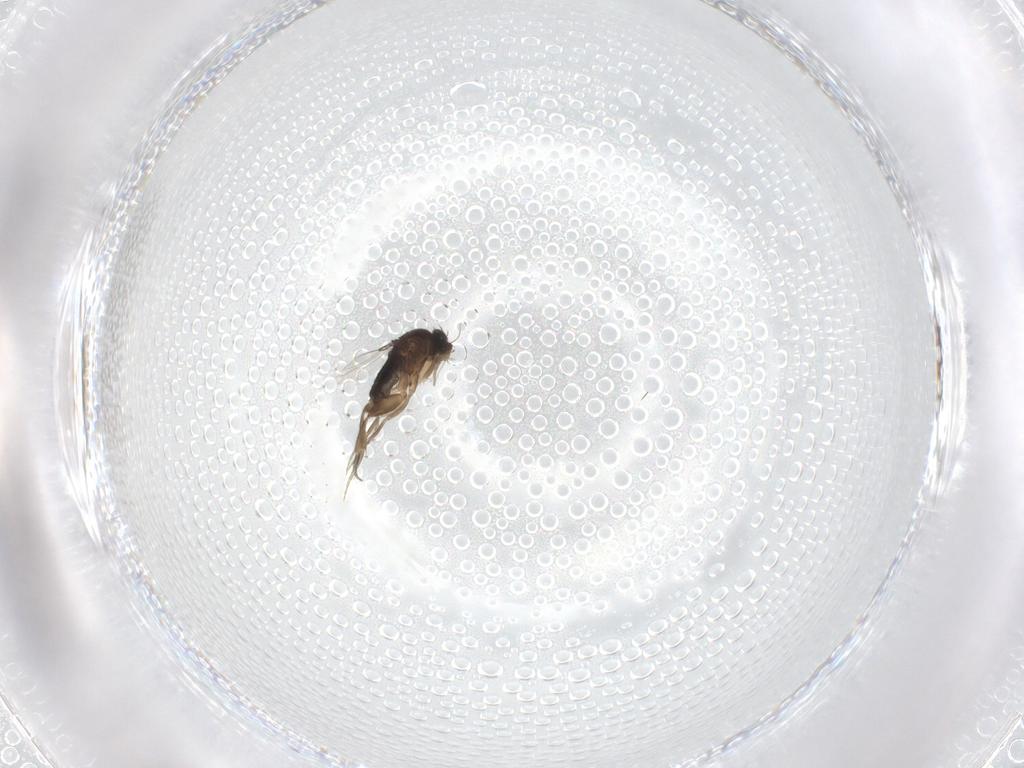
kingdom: Animalia
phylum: Arthropoda
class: Insecta
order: Diptera
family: Phoridae
